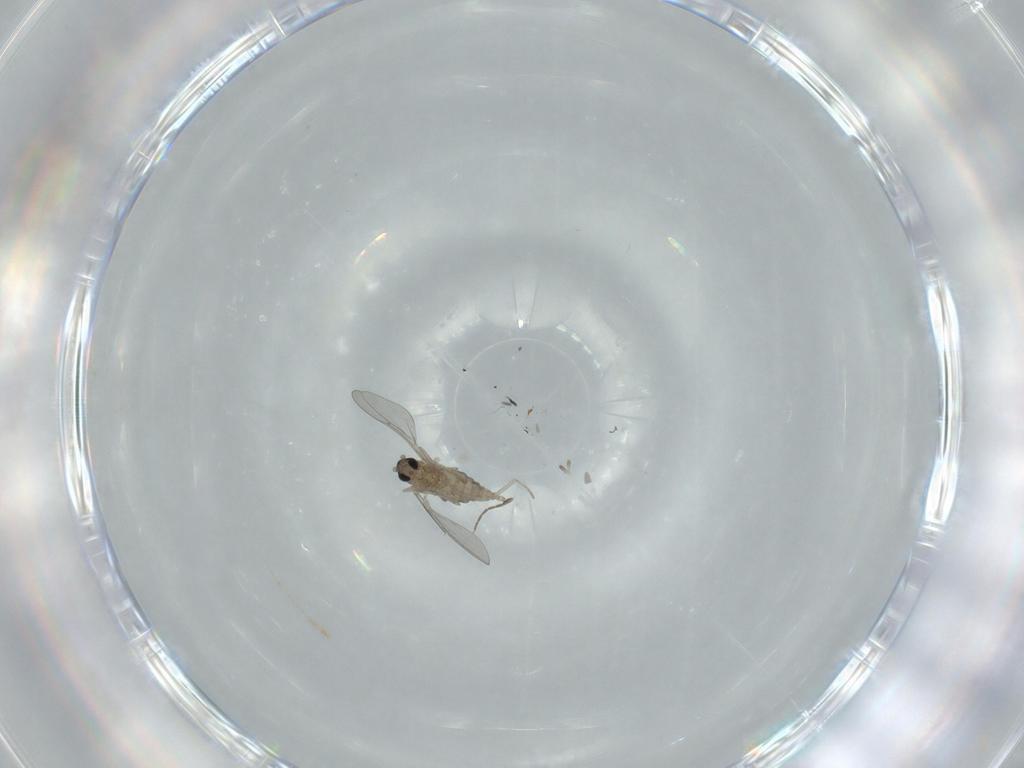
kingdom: Animalia
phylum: Arthropoda
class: Insecta
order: Diptera
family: Cecidomyiidae
